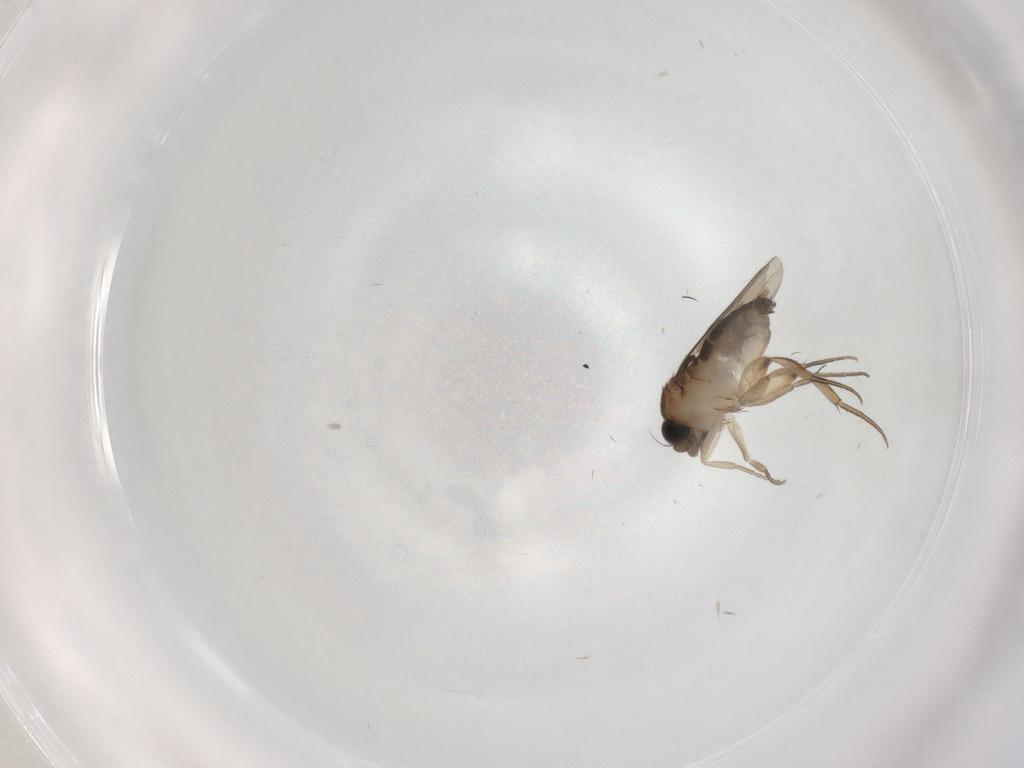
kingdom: Animalia
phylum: Arthropoda
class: Insecta
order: Diptera
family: Phoridae
